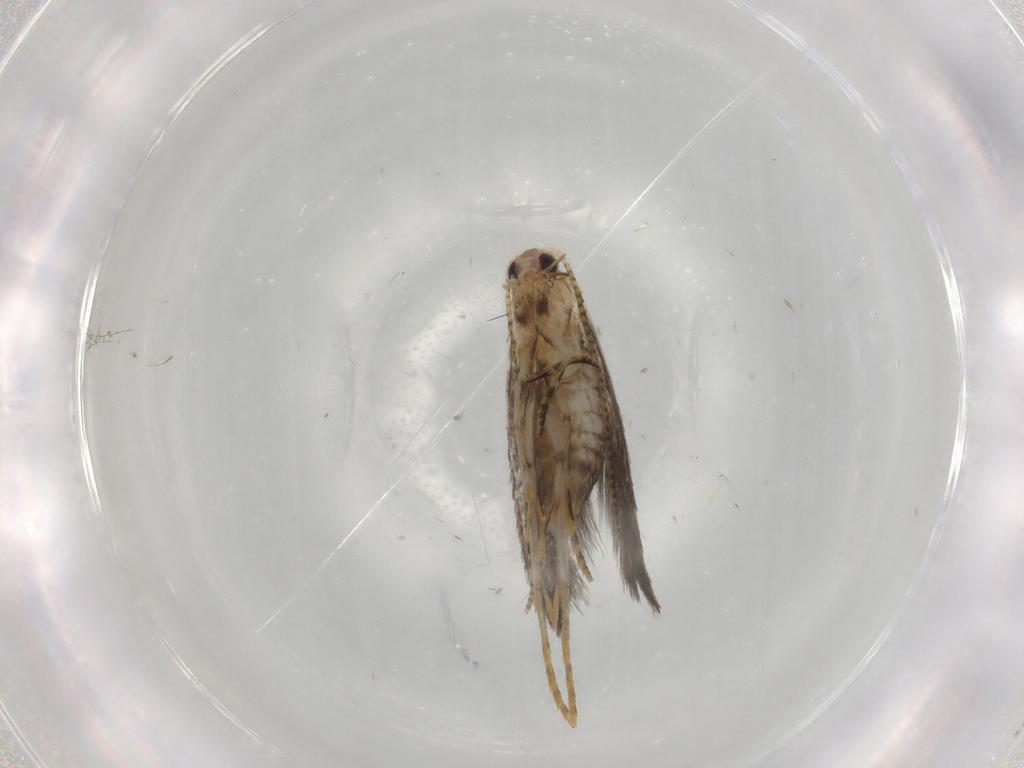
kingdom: Animalia
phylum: Arthropoda
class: Insecta
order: Lepidoptera
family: Tineidae
